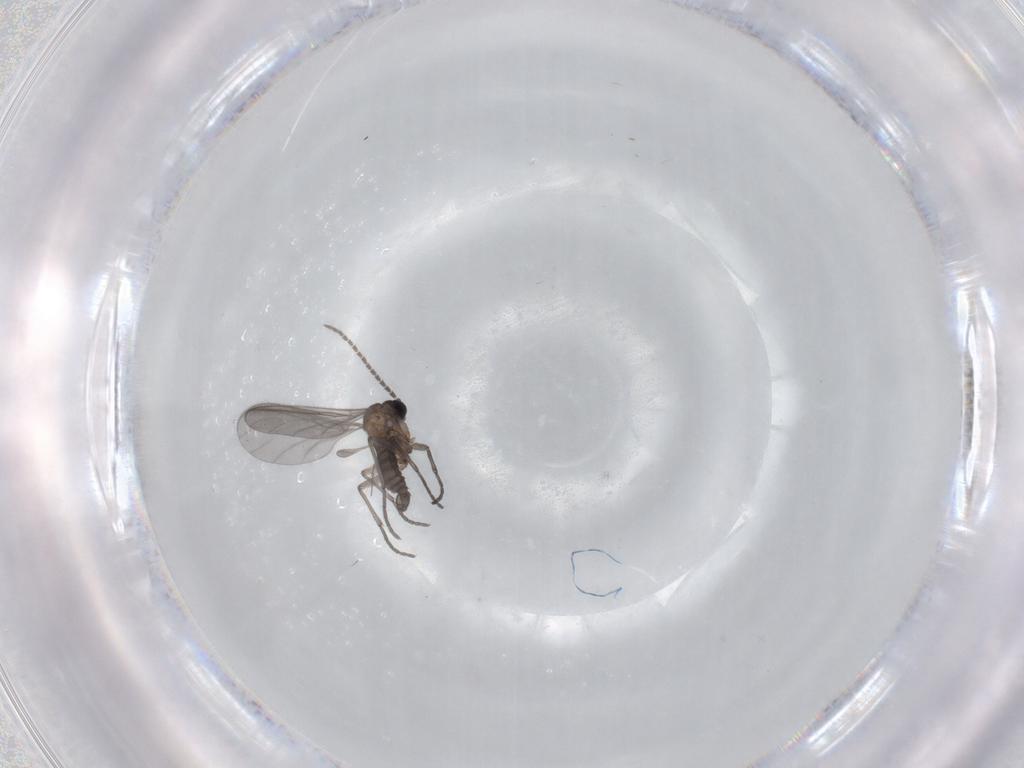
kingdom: Animalia
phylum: Arthropoda
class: Insecta
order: Diptera
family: Sciaridae
